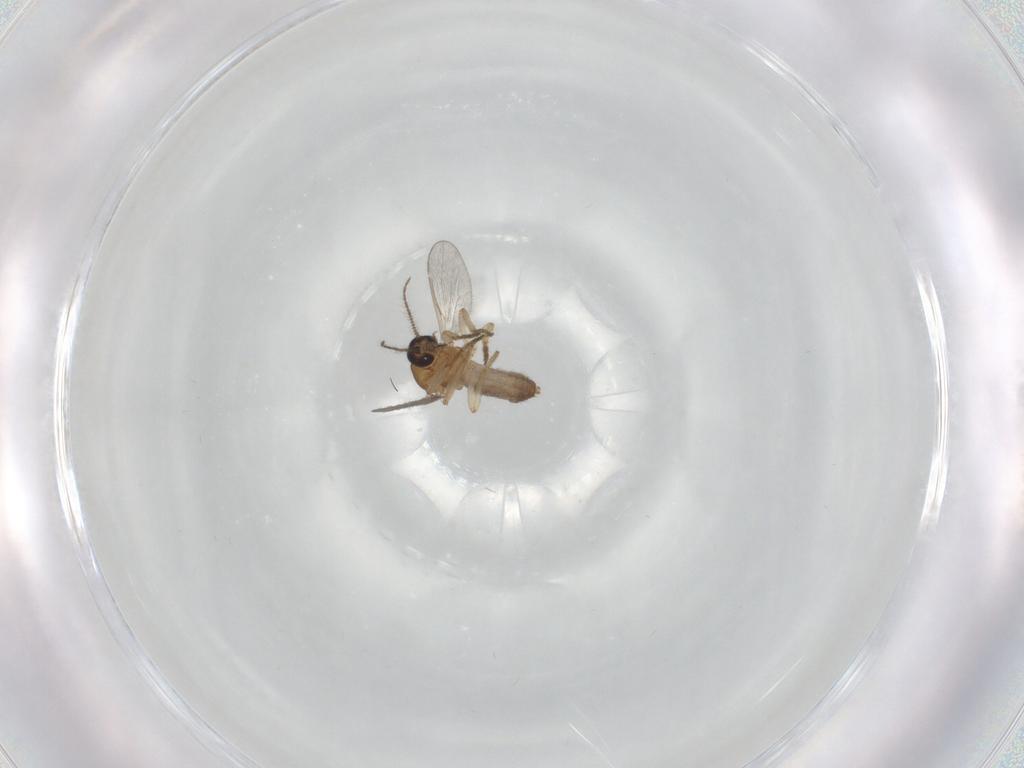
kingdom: Animalia
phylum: Arthropoda
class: Insecta
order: Diptera
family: Ceratopogonidae
